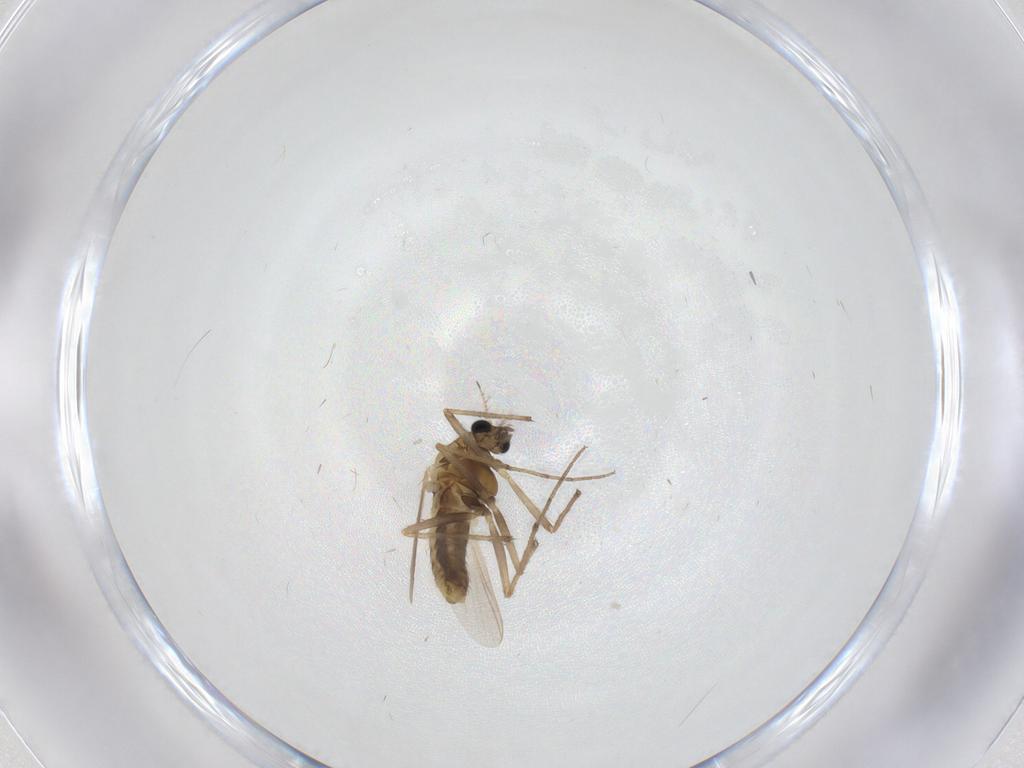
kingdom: Animalia
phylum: Arthropoda
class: Insecta
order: Diptera
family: Chironomidae
